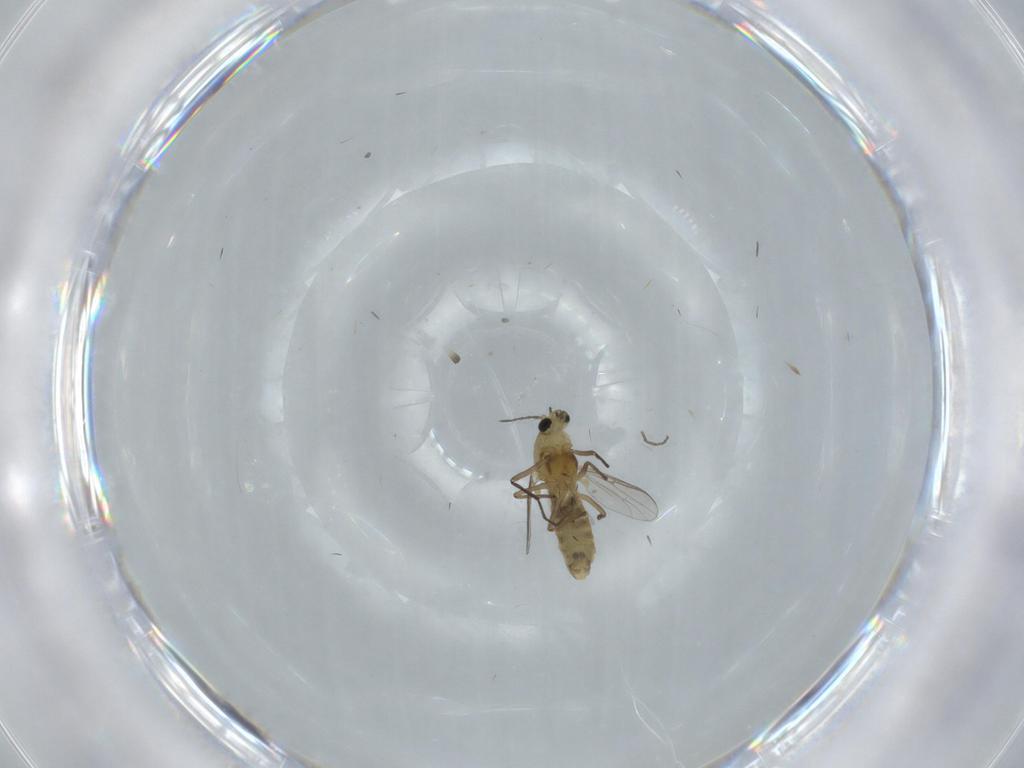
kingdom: Animalia
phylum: Arthropoda
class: Insecta
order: Diptera
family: Chironomidae
